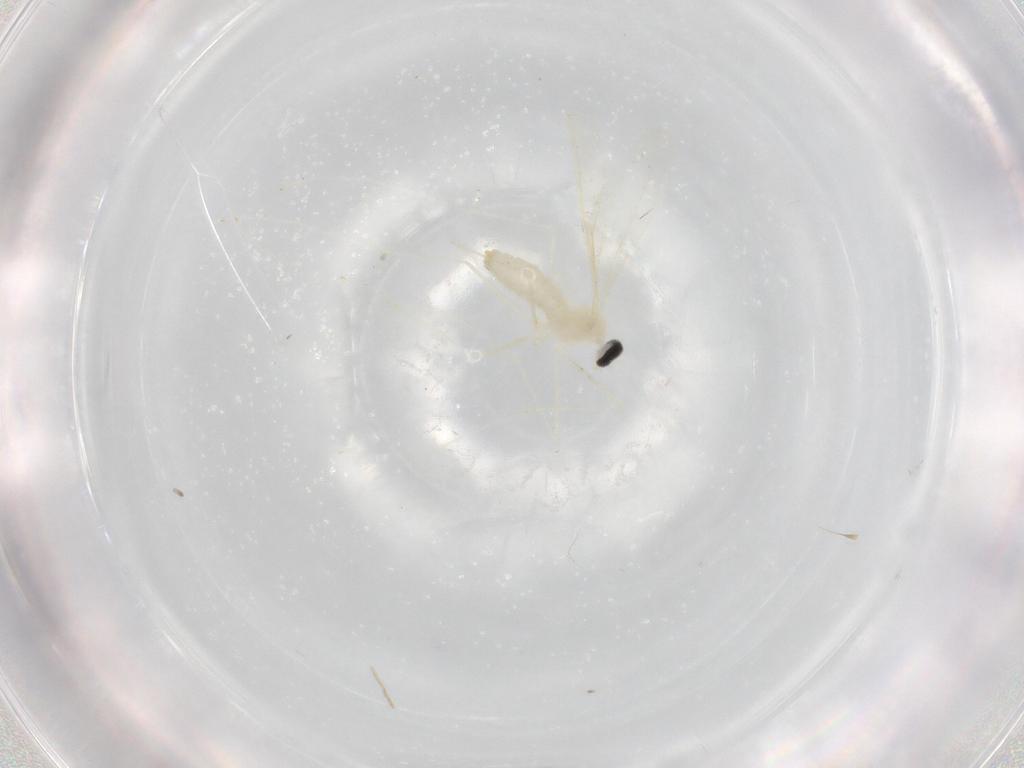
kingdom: Animalia
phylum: Arthropoda
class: Insecta
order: Diptera
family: Cecidomyiidae
